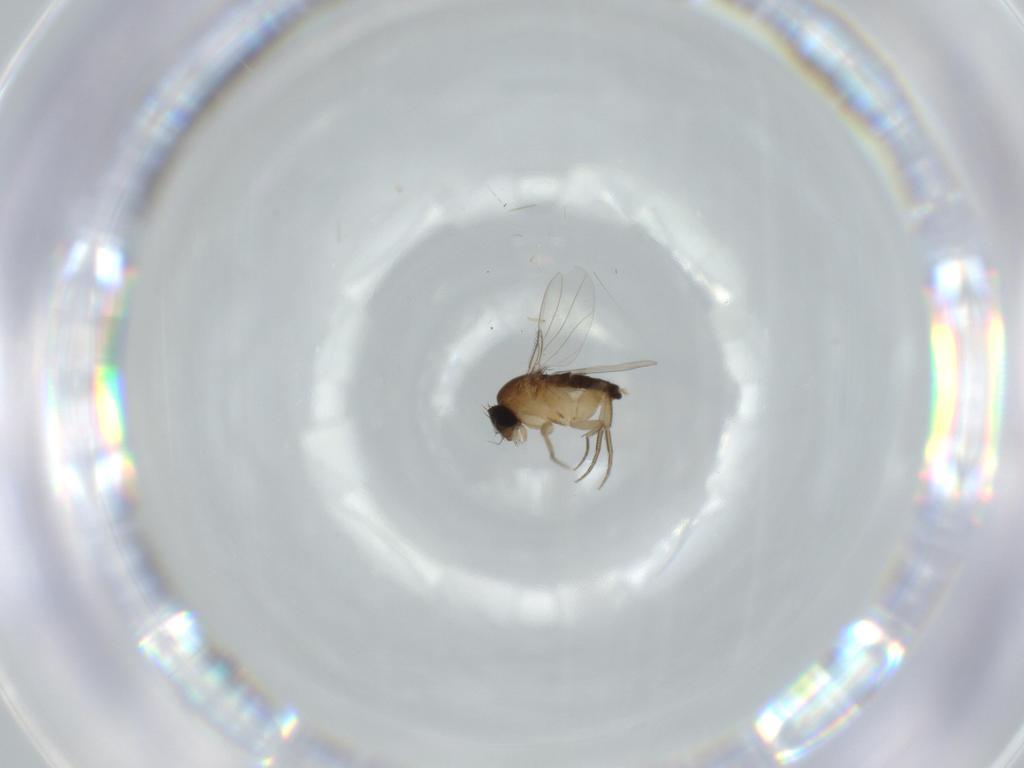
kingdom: Animalia
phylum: Arthropoda
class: Insecta
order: Diptera
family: Phoridae
